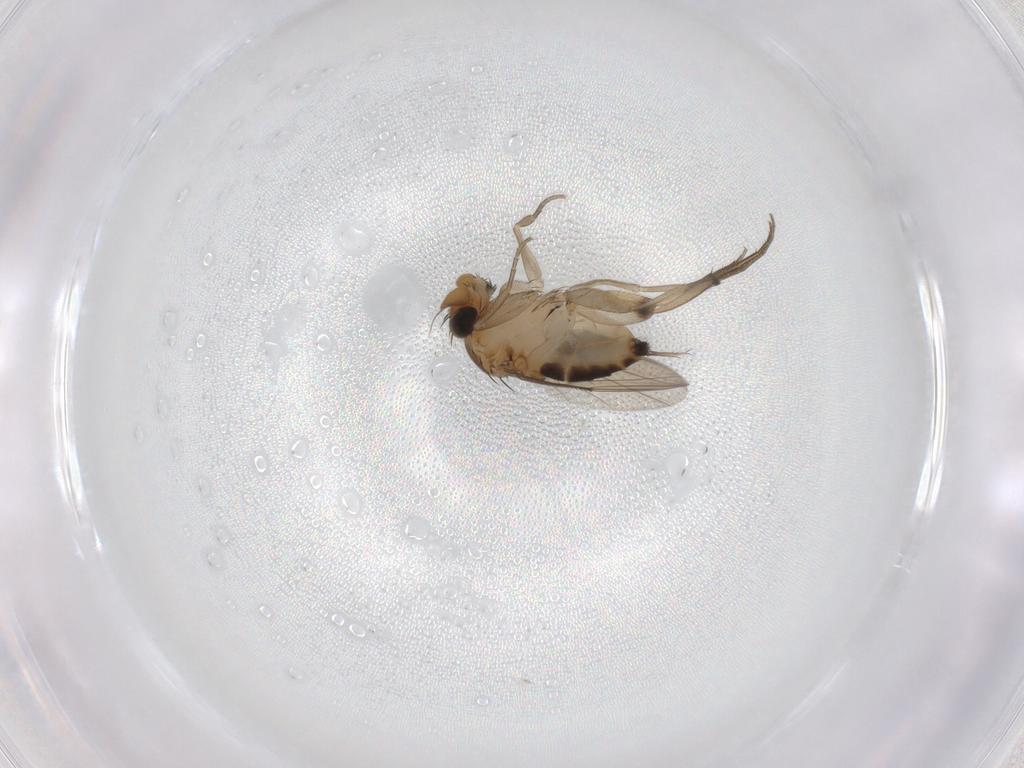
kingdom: Animalia
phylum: Arthropoda
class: Insecta
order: Diptera
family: Phoridae
